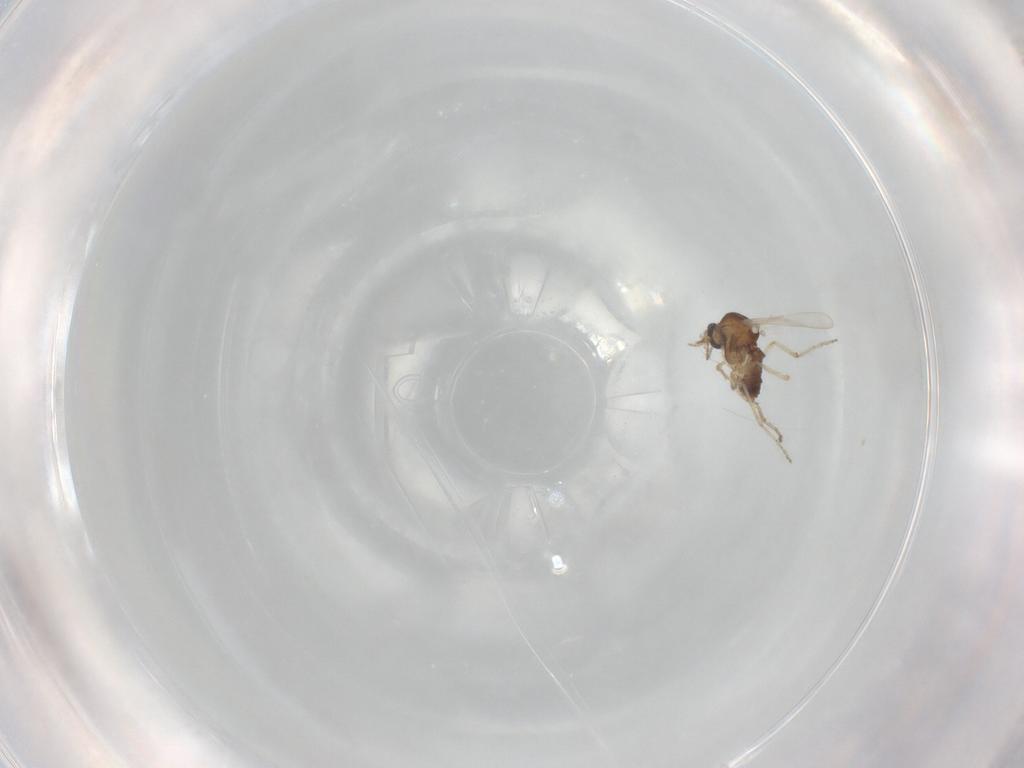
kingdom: Animalia
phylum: Arthropoda
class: Insecta
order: Diptera
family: Ceratopogonidae
